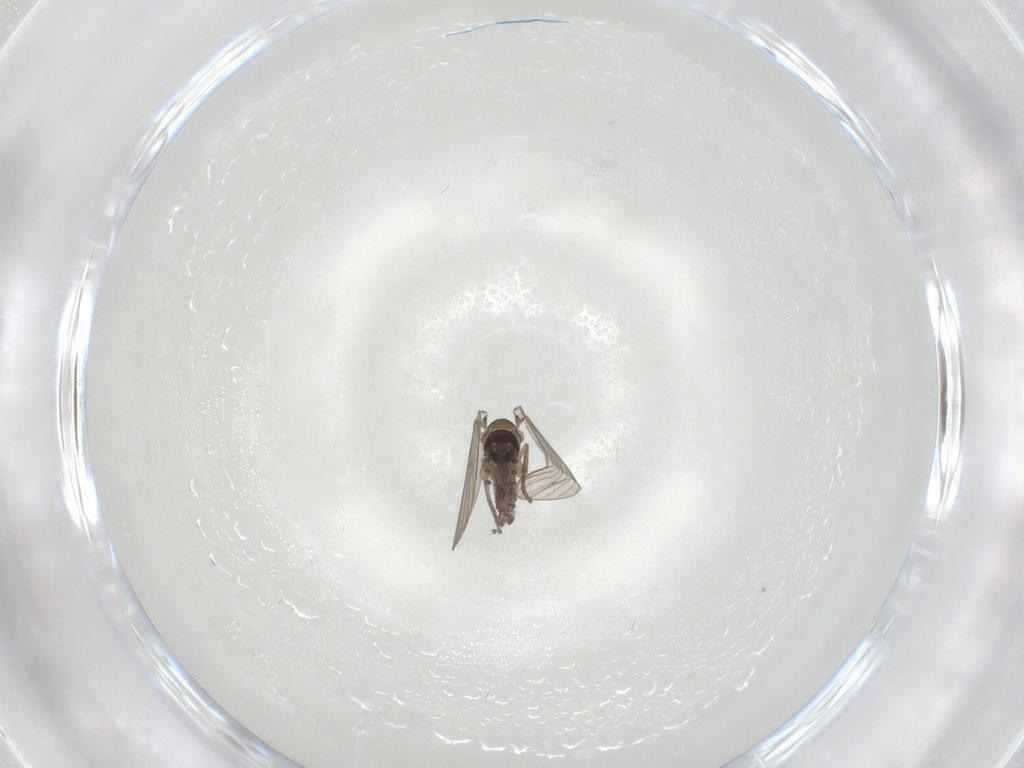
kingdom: Animalia
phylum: Arthropoda
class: Insecta
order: Diptera
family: Psychodidae
